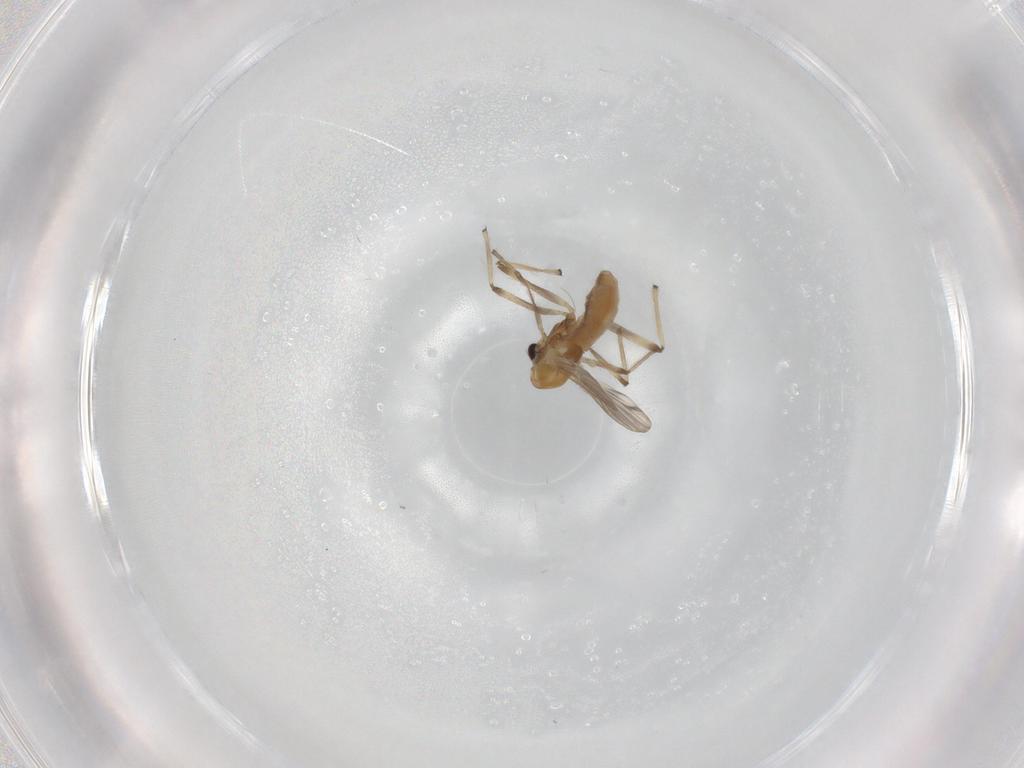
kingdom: Animalia
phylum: Arthropoda
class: Insecta
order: Diptera
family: Chironomidae
